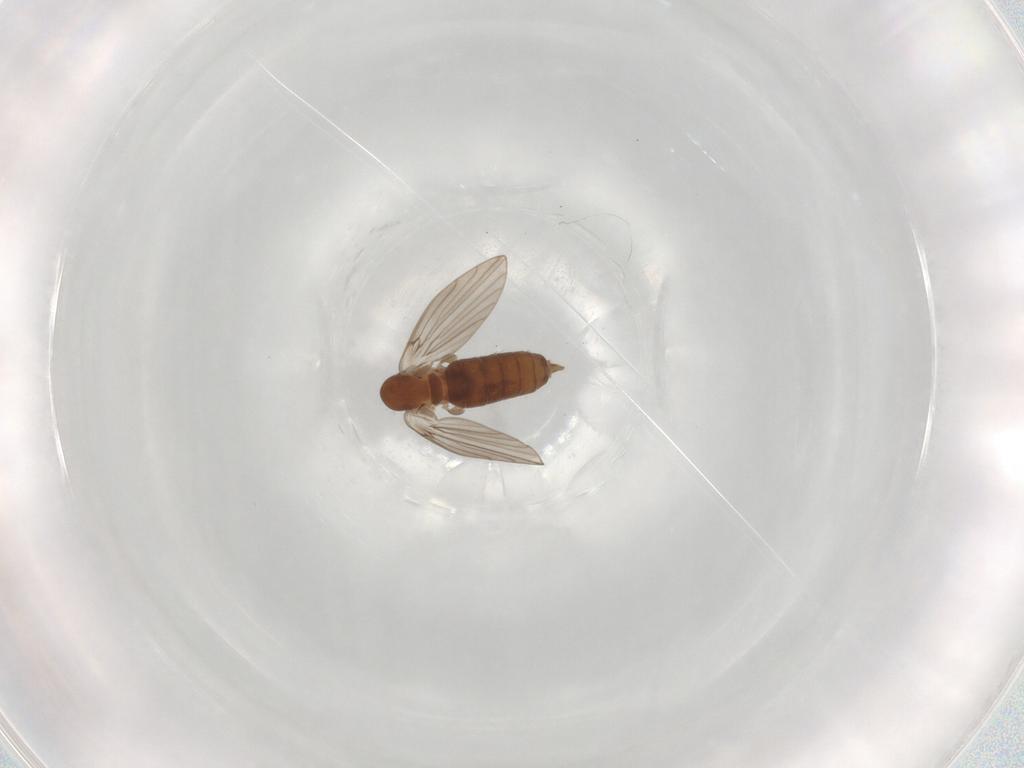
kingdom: Animalia
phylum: Arthropoda
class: Insecta
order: Diptera
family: Psychodidae
